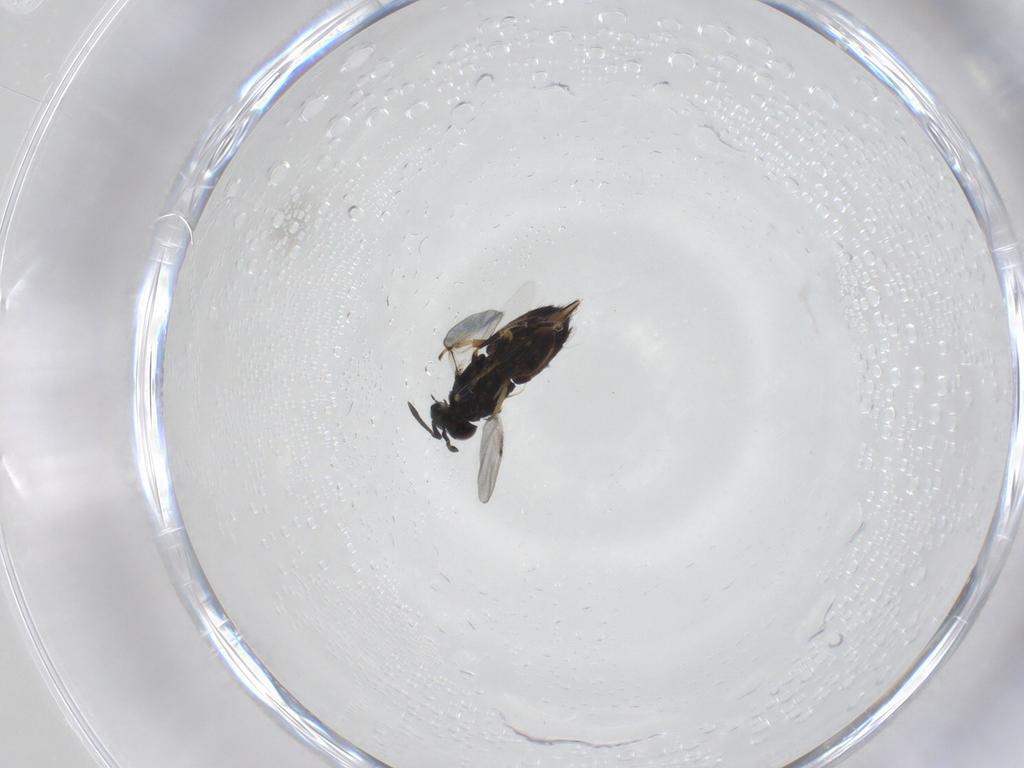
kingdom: Animalia
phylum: Arthropoda
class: Insecta
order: Hymenoptera
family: Encyrtidae
